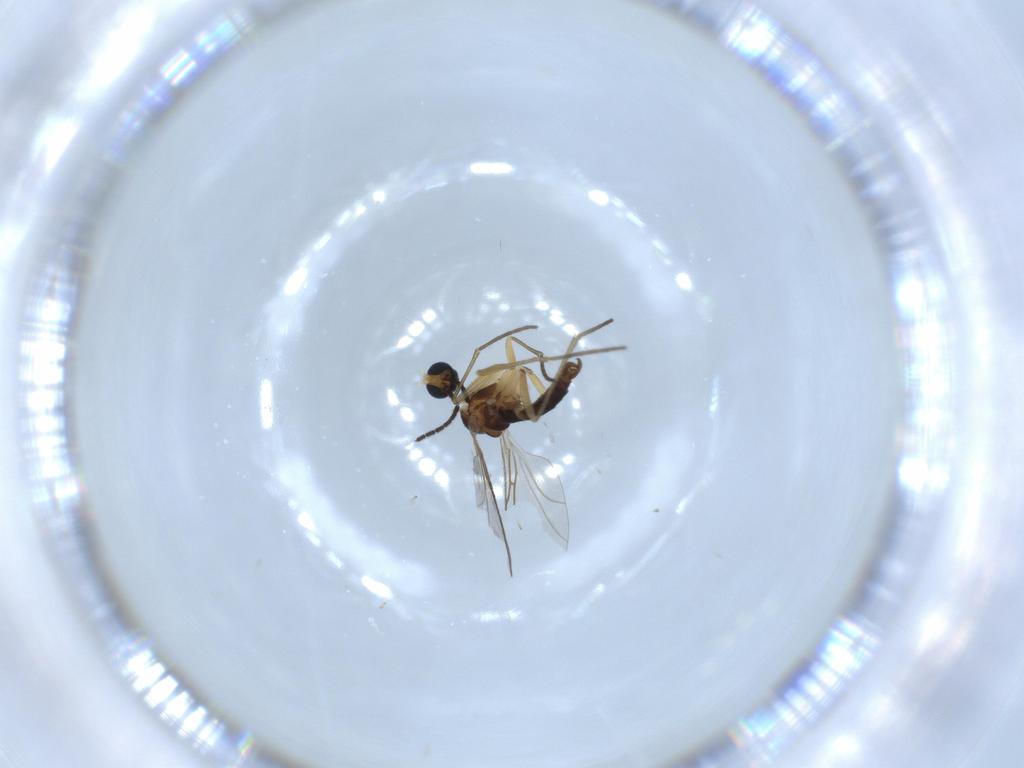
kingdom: Animalia
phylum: Arthropoda
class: Insecta
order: Diptera
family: Sciaridae
